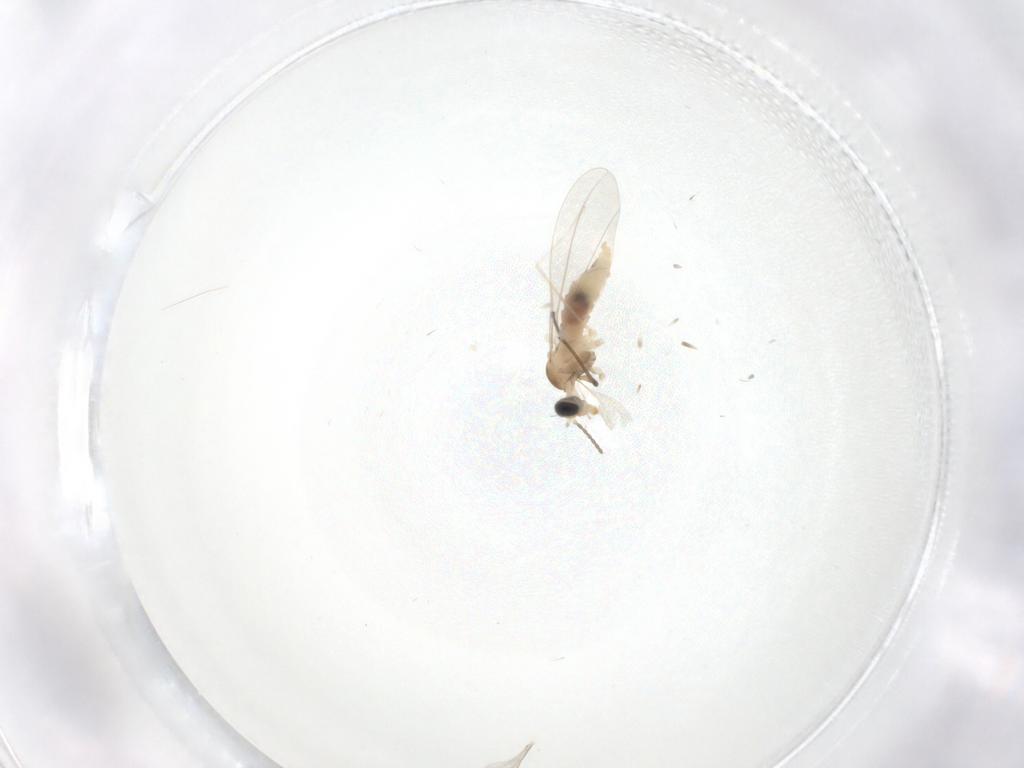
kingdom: Animalia
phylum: Arthropoda
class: Insecta
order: Diptera
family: Cecidomyiidae
